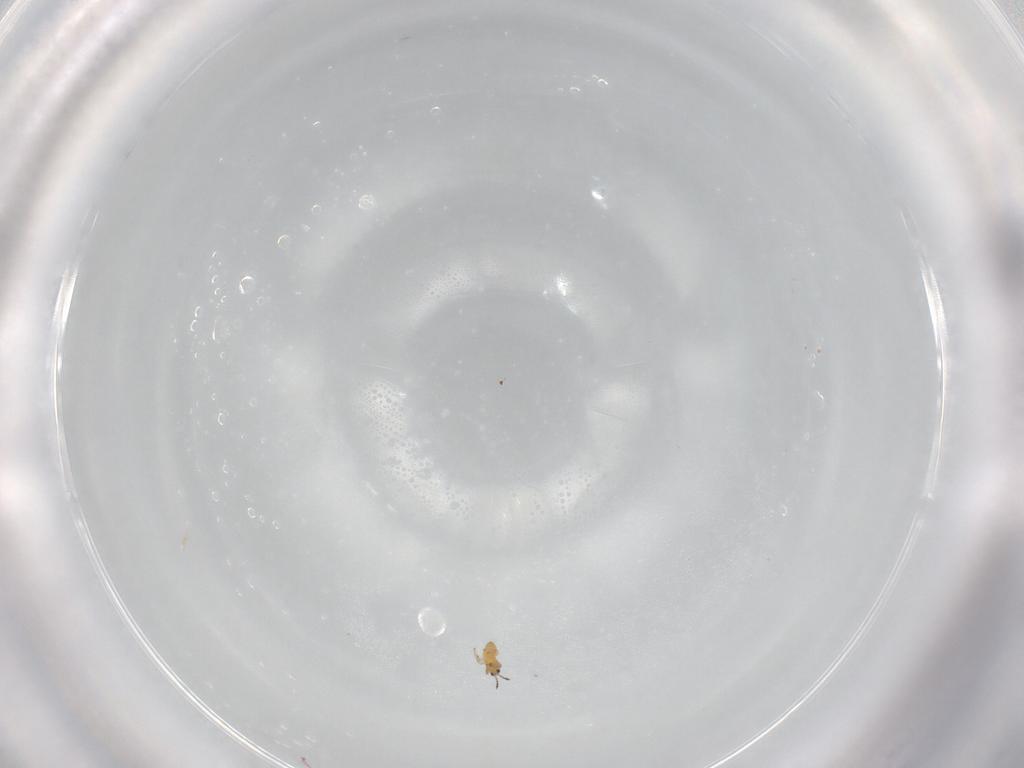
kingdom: Animalia
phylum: Arthropoda
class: Insecta
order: Thysanoptera
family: Thripidae
